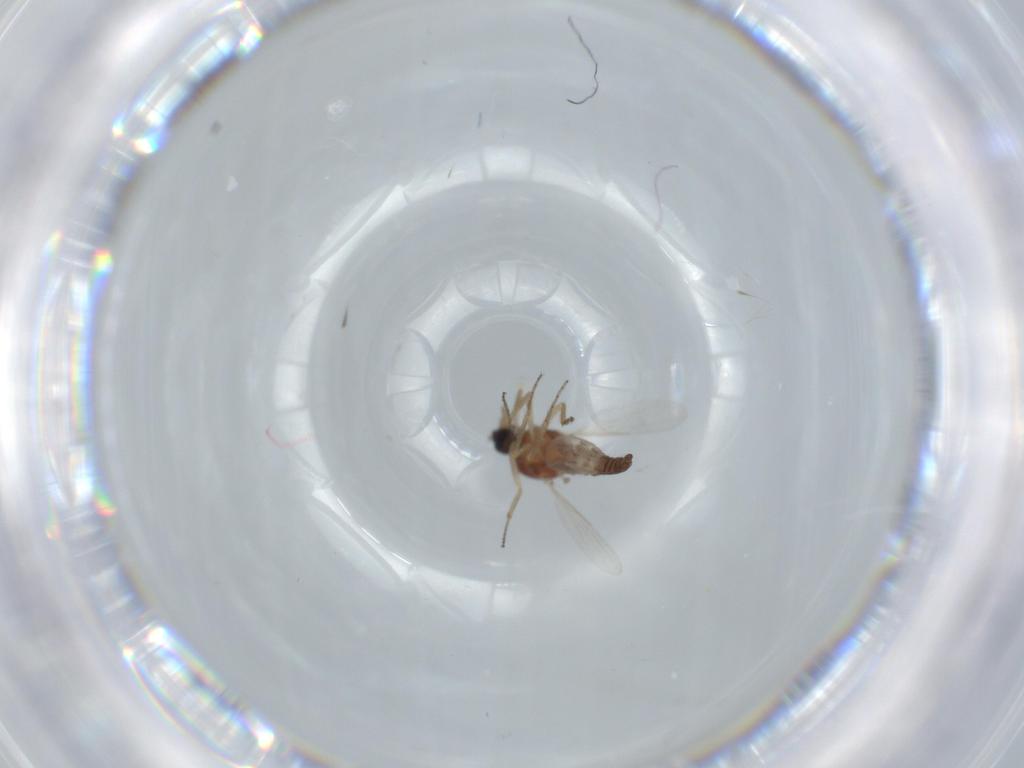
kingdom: Animalia
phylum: Arthropoda
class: Insecta
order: Diptera
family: Ceratopogonidae
